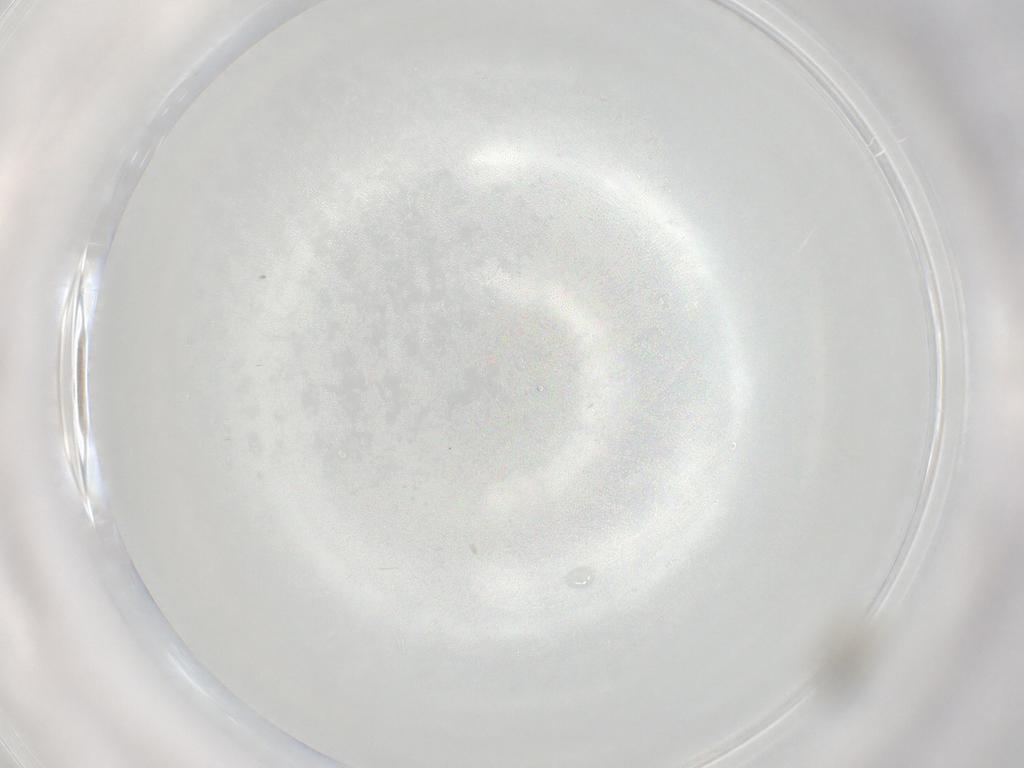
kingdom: Animalia
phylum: Arthropoda
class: Insecta
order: Diptera
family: Cecidomyiidae
